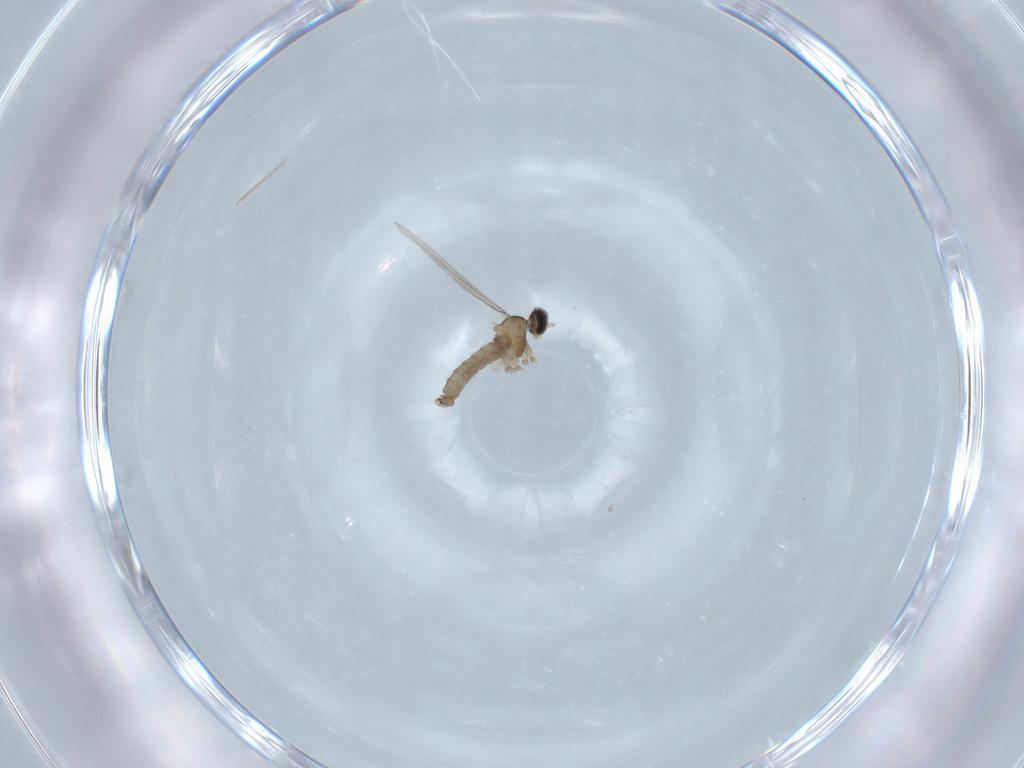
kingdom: Animalia
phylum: Arthropoda
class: Insecta
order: Diptera
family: Cecidomyiidae
